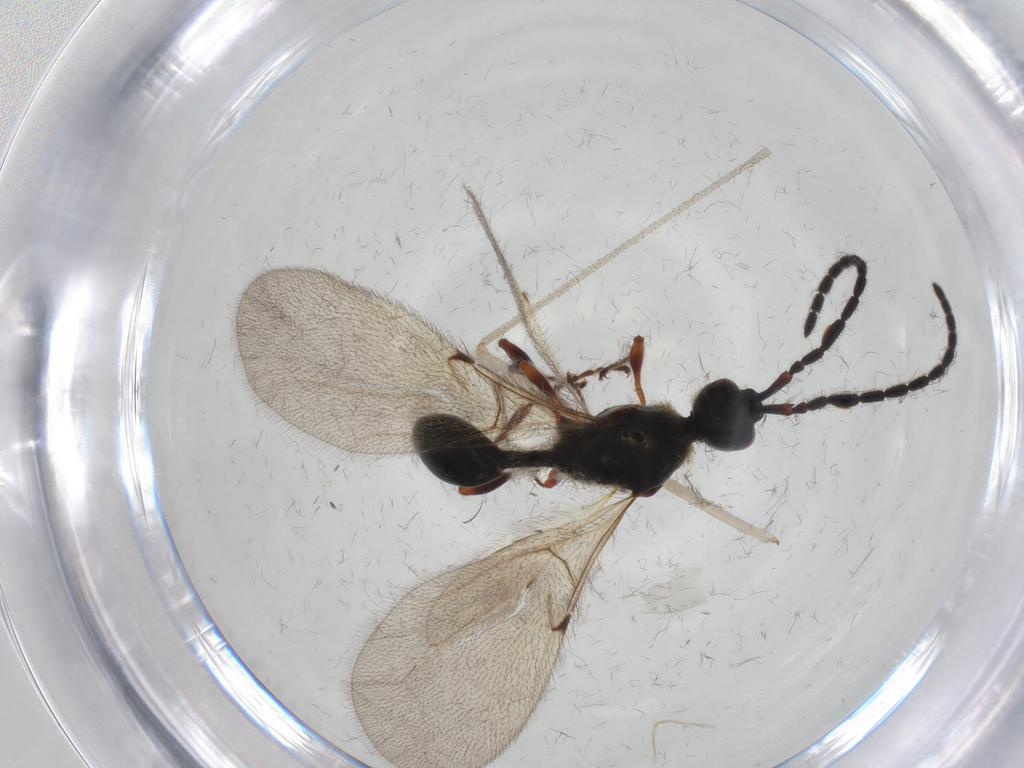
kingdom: Animalia
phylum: Arthropoda
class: Insecta
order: Hymenoptera
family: Diapriidae
